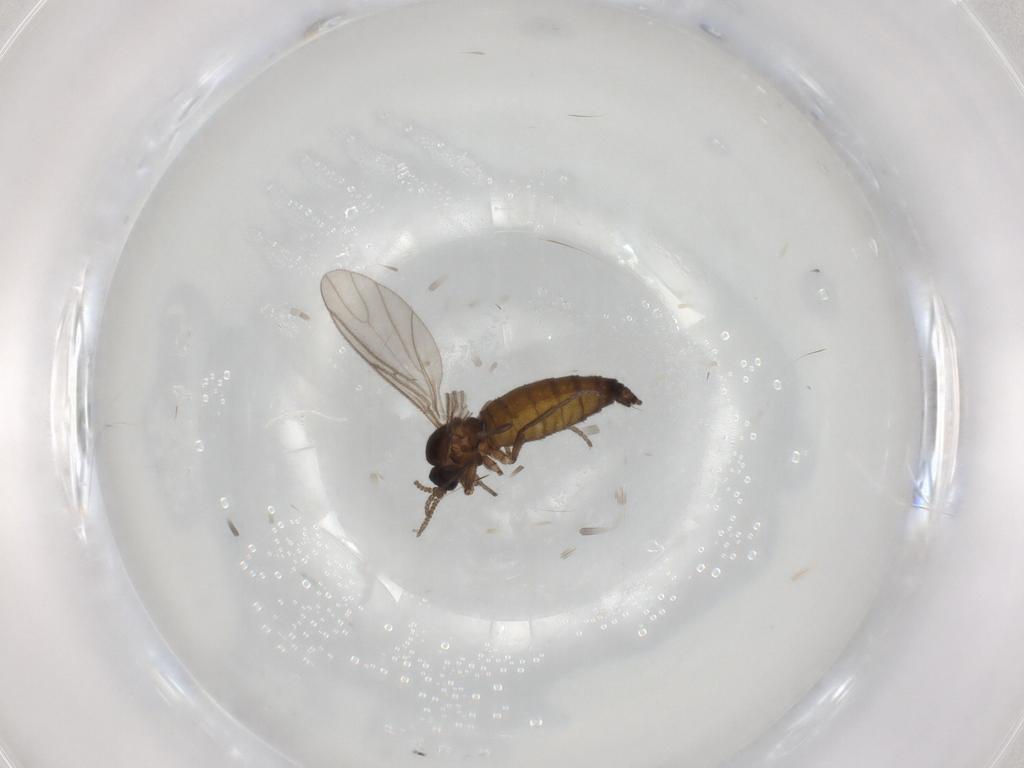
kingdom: Animalia
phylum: Arthropoda
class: Insecta
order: Diptera
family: Sciaridae
